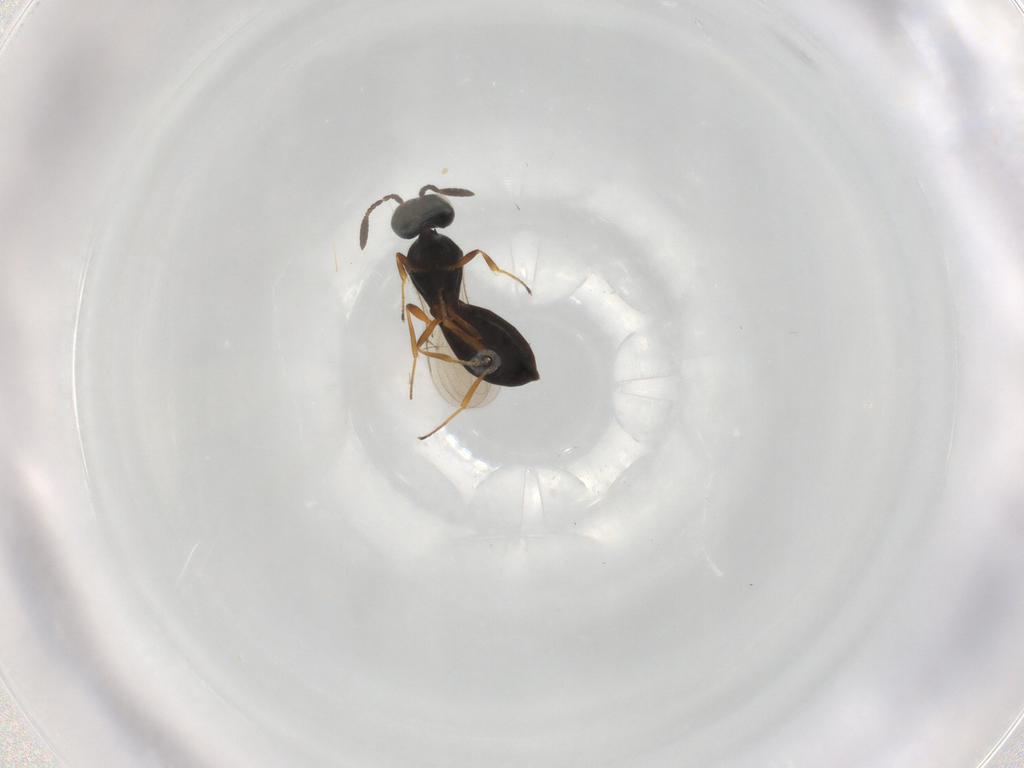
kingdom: Animalia
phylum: Arthropoda
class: Insecta
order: Hymenoptera
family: Scelionidae
